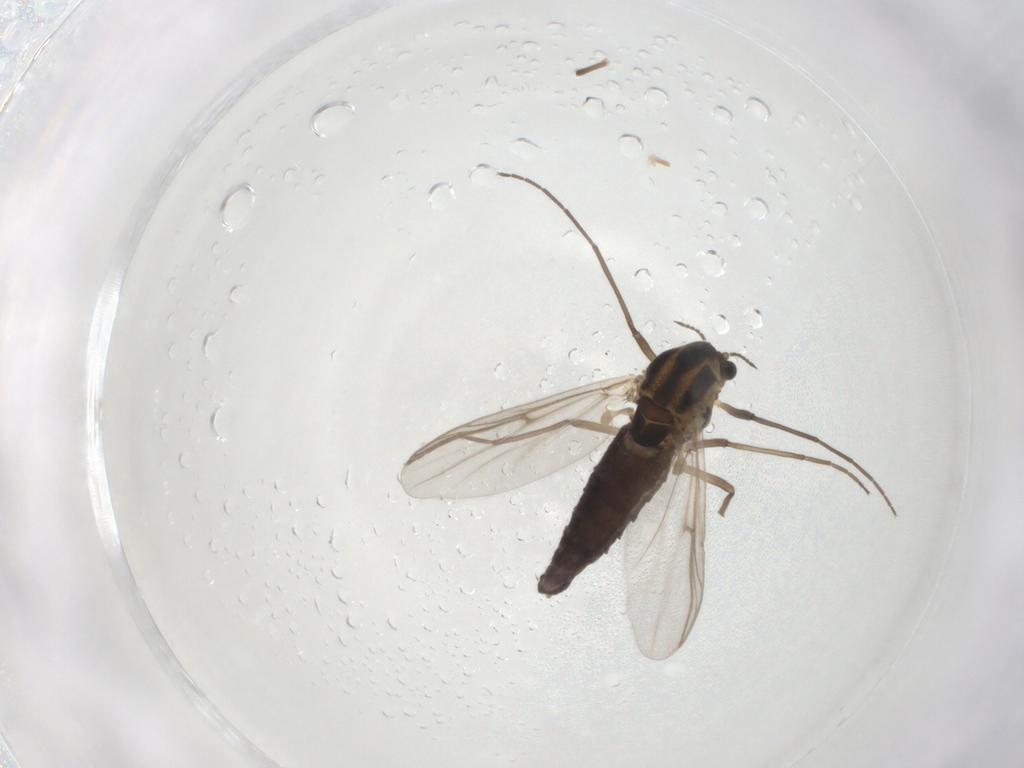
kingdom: Animalia
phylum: Arthropoda
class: Insecta
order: Diptera
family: Chironomidae
